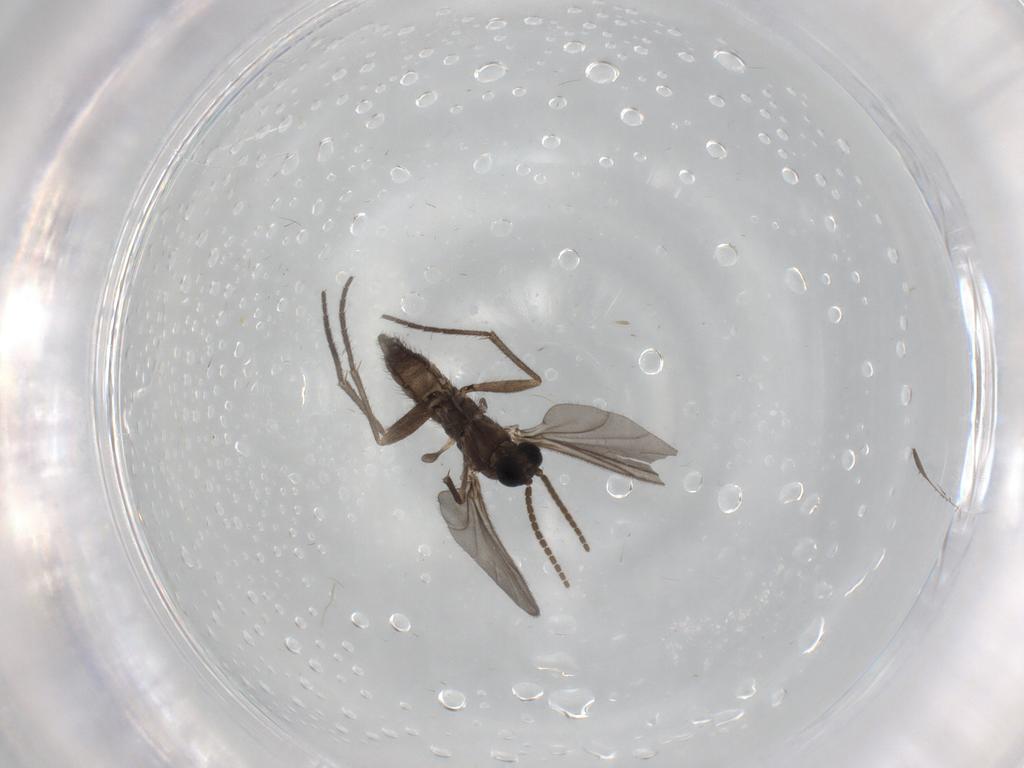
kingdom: Animalia
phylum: Arthropoda
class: Insecta
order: Diptera
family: Sciaridae
